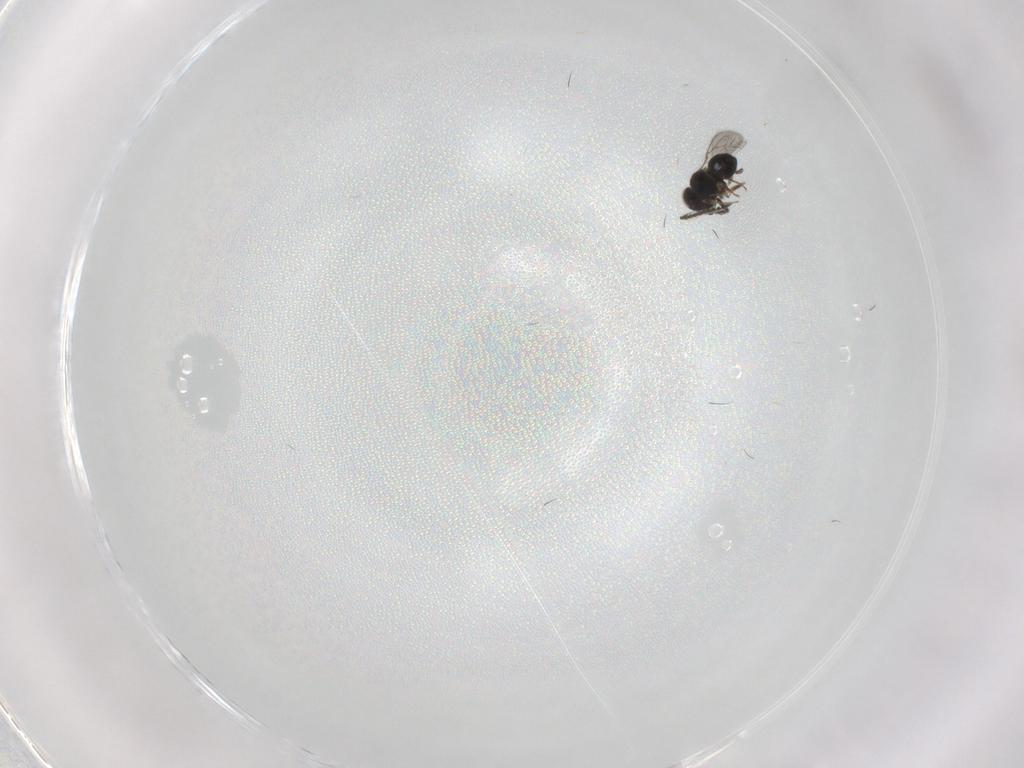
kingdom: Animalia
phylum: Arthropoda
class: Insecta
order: Hymenoptera
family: Scelionidae
